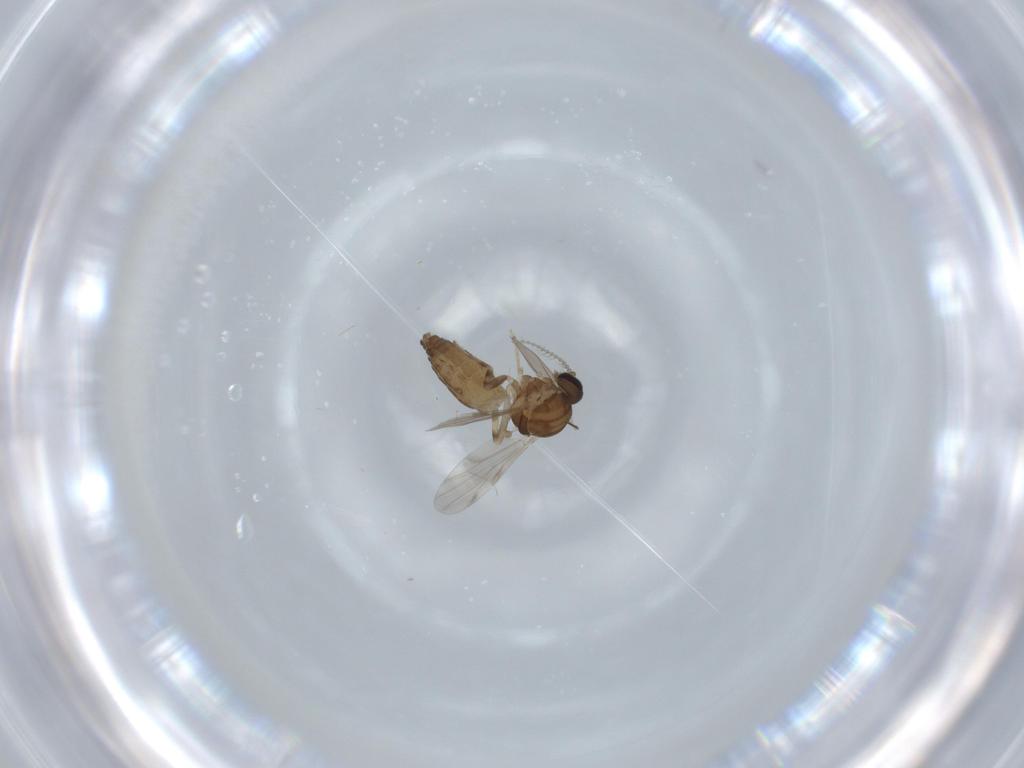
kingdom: Animalia
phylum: Arthropoda
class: Insecta
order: Diptera
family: Ceratopogonidae
